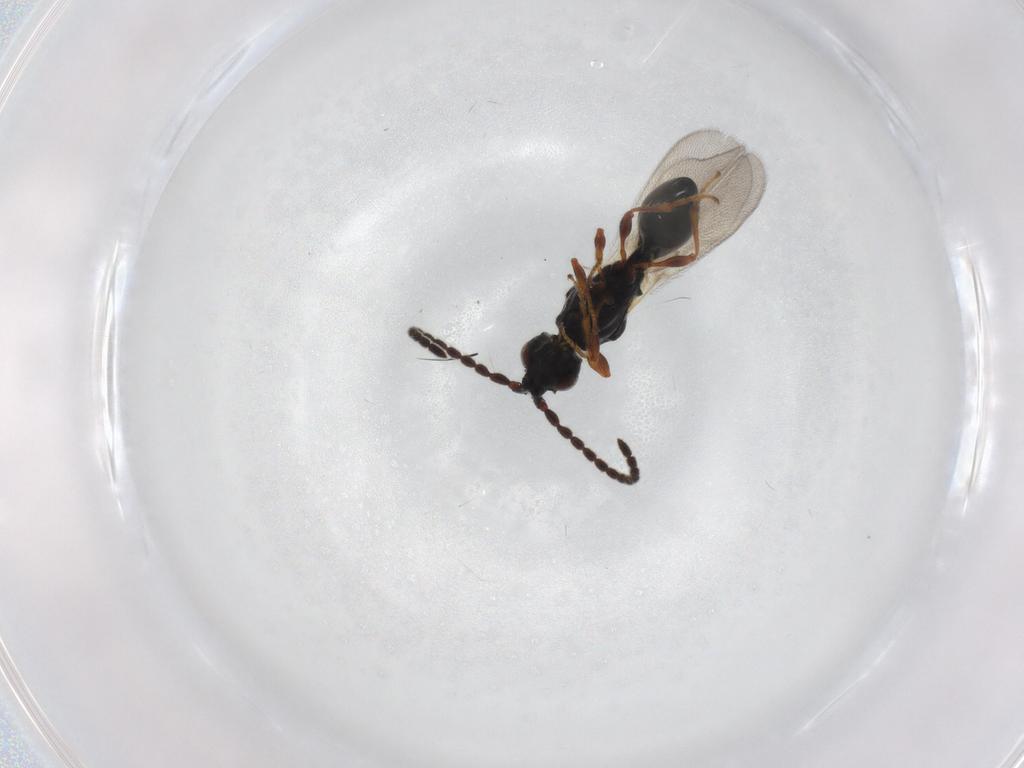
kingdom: Animalia
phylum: Arthropoda
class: Insecta
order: Hymenoptera
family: Diapriidae
